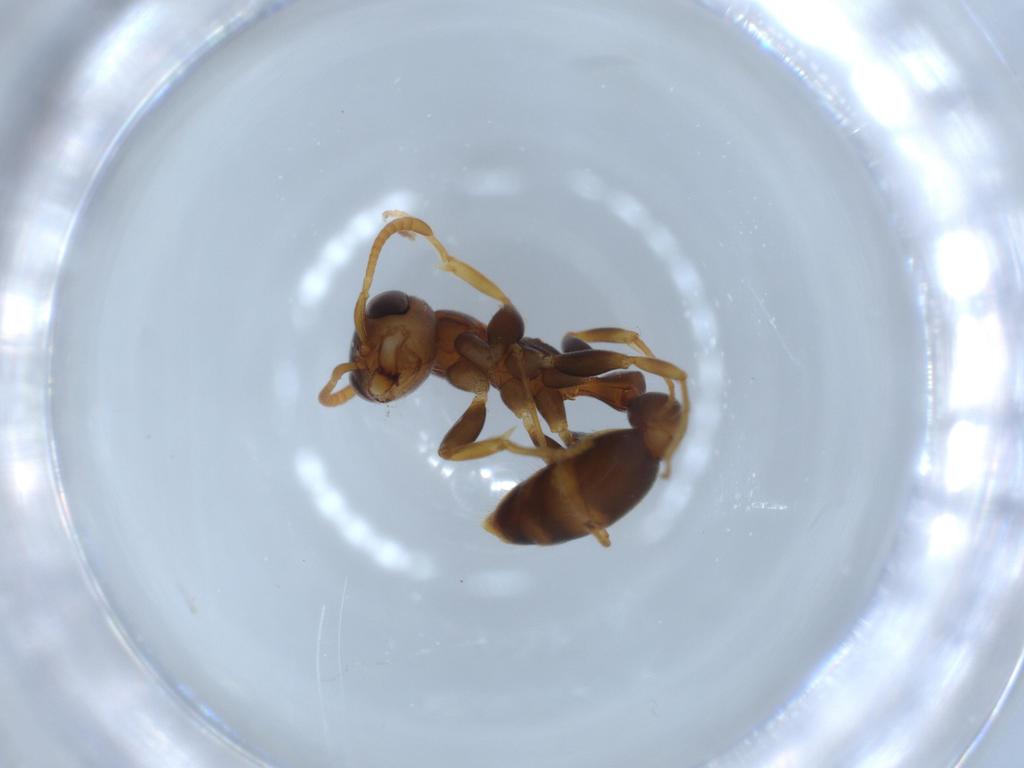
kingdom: Animalia
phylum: Arthropoda
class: Insecta
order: Hymenoptera
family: Formicidae
